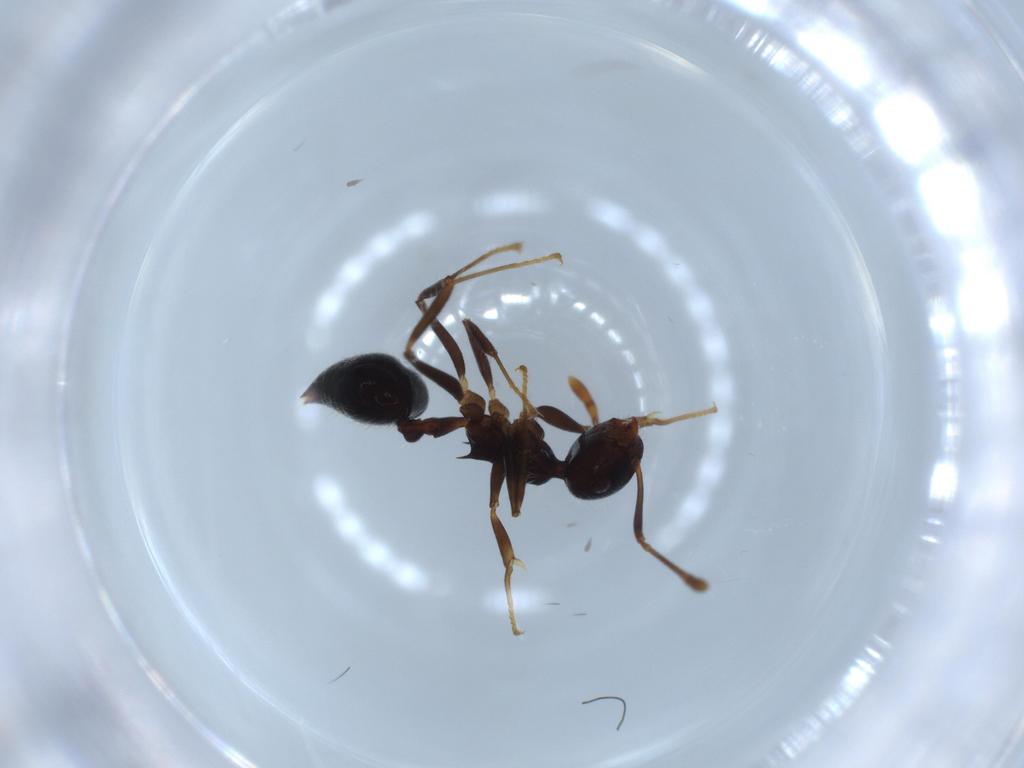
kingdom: Animalia
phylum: Arthropoda
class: Insecta
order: Hymenoptera
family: Formicidae
